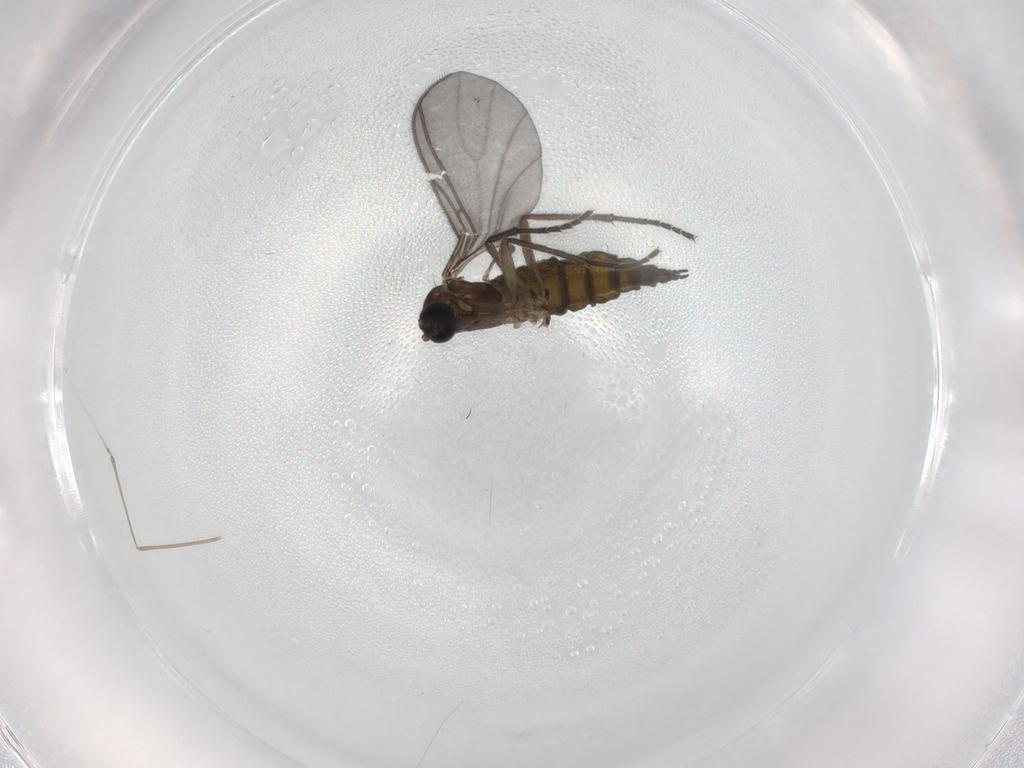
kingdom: Animalia
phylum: Arthropoda
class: Insecta
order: Diptera
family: Sciaridae
